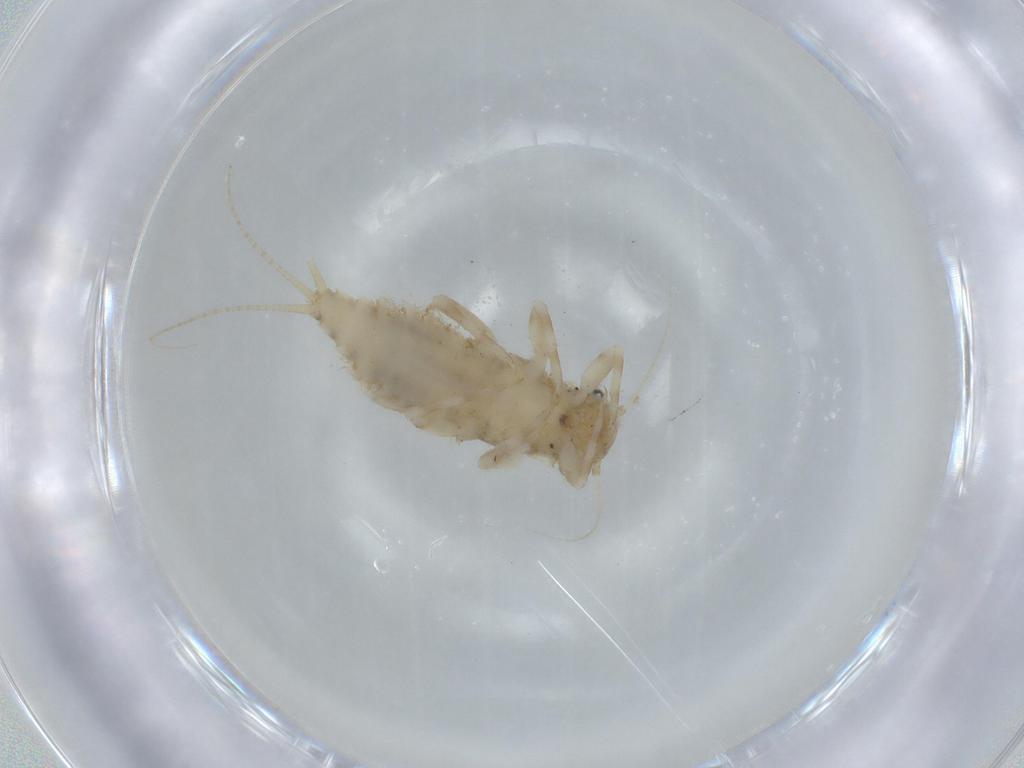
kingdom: Animalia
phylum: Arthropoda
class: Insecta
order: Ephemeroptera
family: Caenidae
